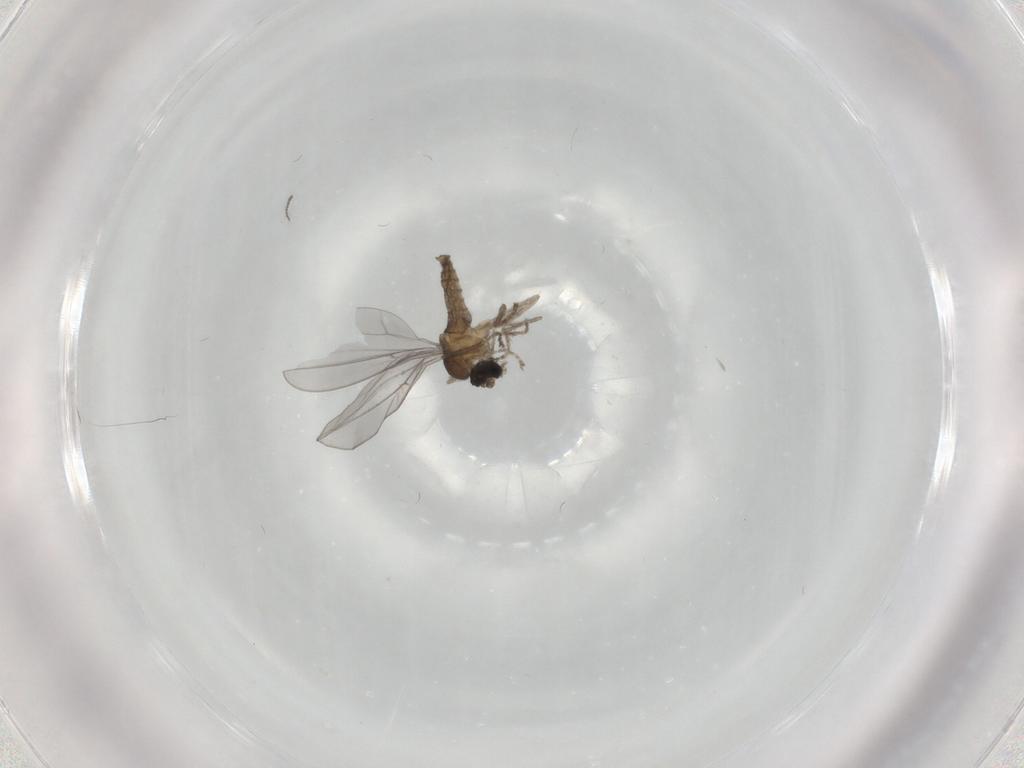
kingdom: Animalia
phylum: Arthropoda
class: Insecta
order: Diptera
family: Cecidomyiidae
